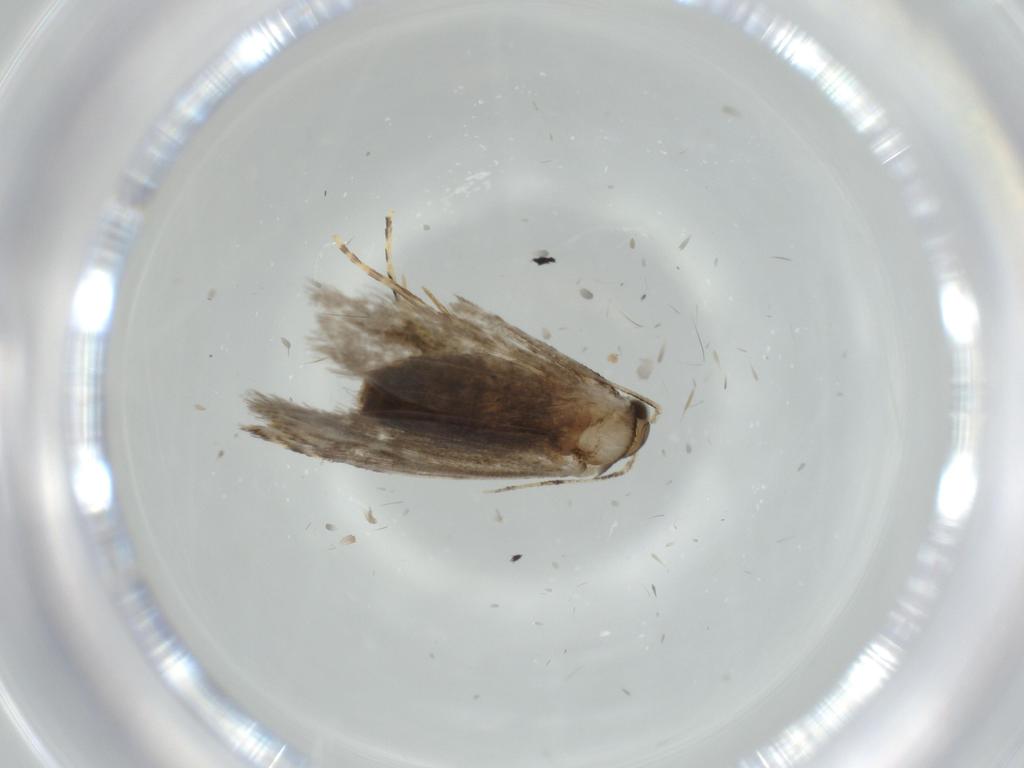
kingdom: Animalia
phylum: Arthropoda
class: Insecta
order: Lepidoptera
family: Tineidae
